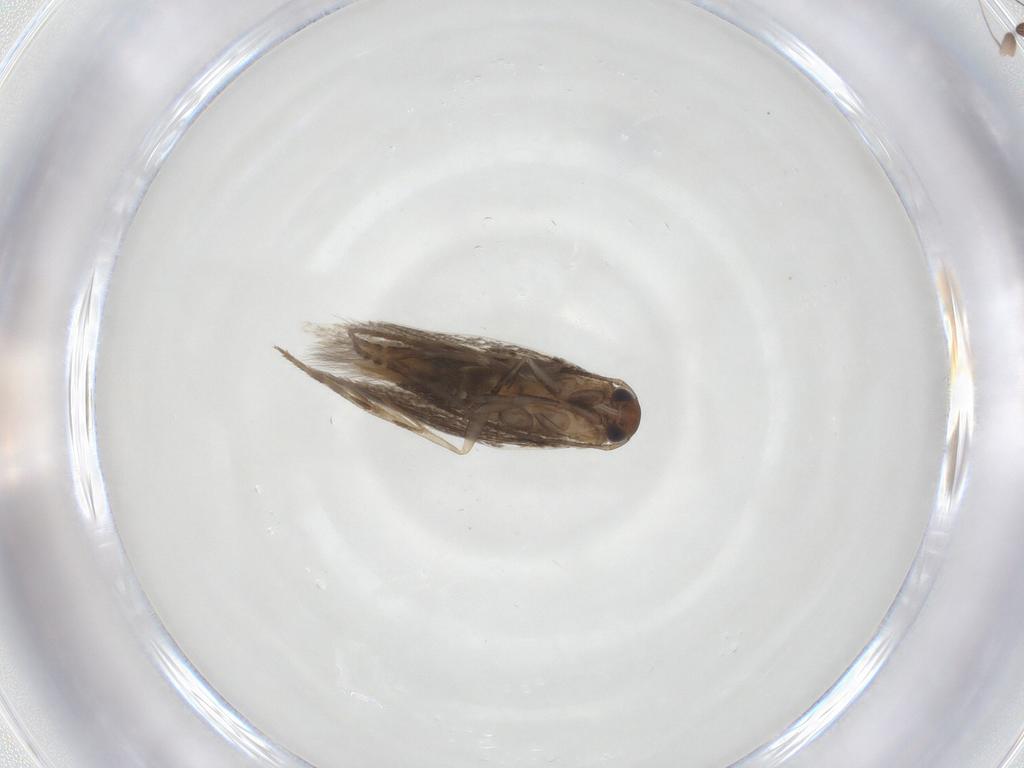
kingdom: Animalia
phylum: Arthropoda
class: Insecta
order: Lepidoptera
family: Elachistidae
